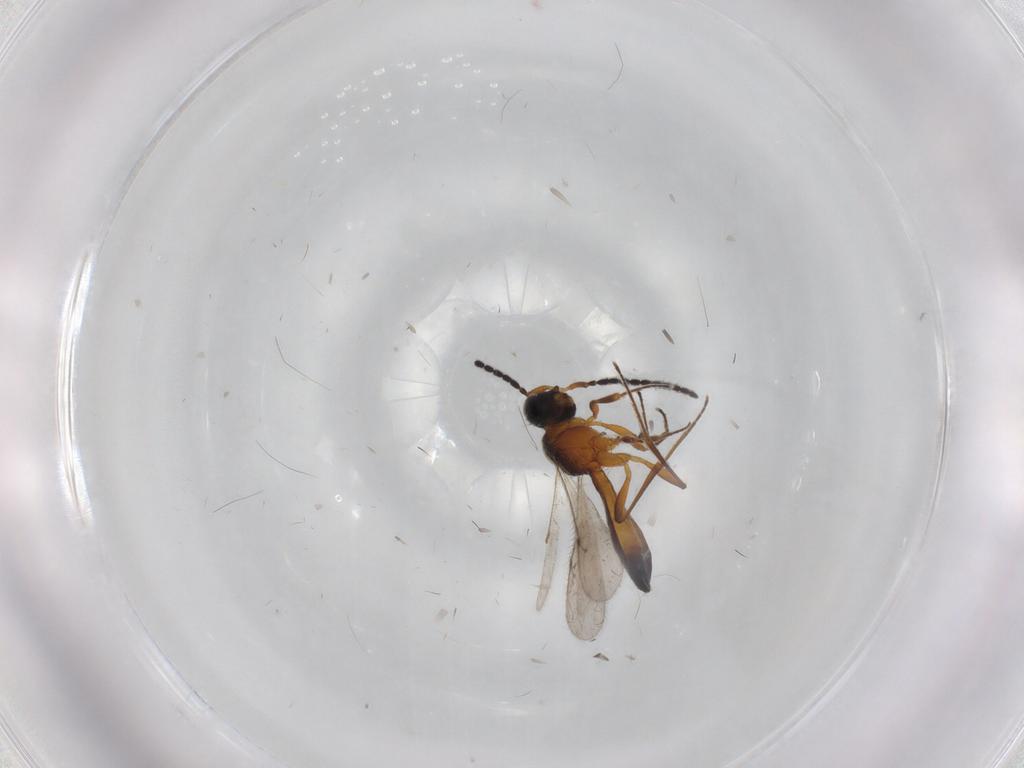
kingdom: Animalia
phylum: Arthropoda
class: Insecta
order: Hymenoptera
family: Scelionidae
